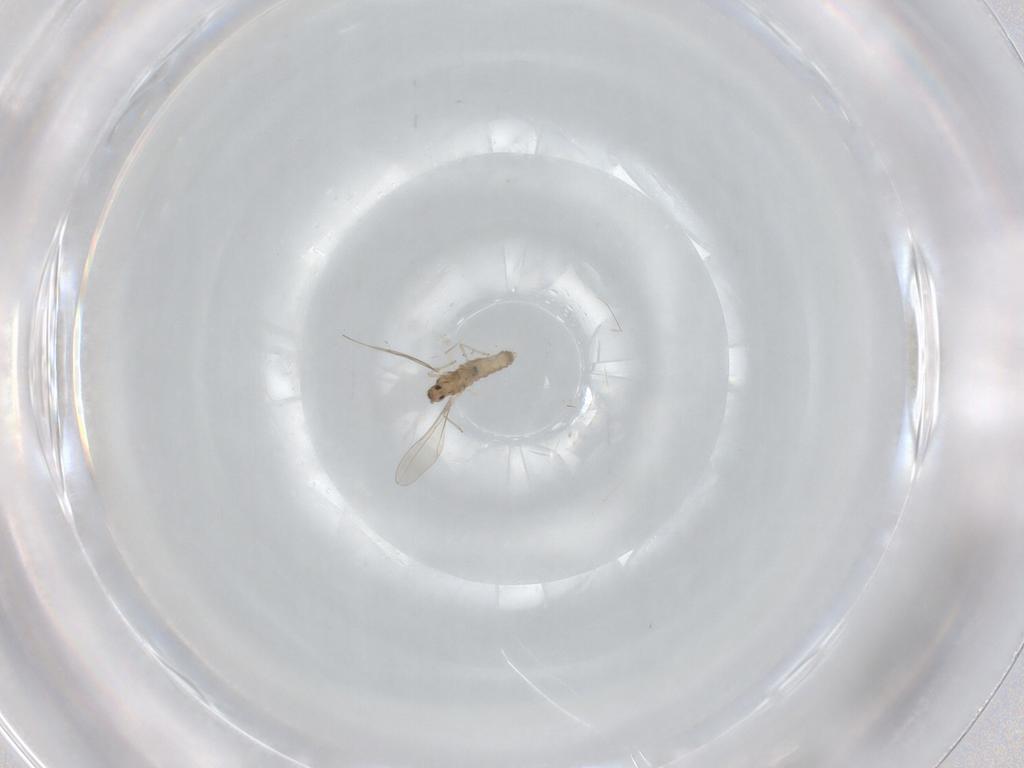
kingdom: Animalia
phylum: Arthropoda
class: Insecta
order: Diptera
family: Cecidomyiidae
